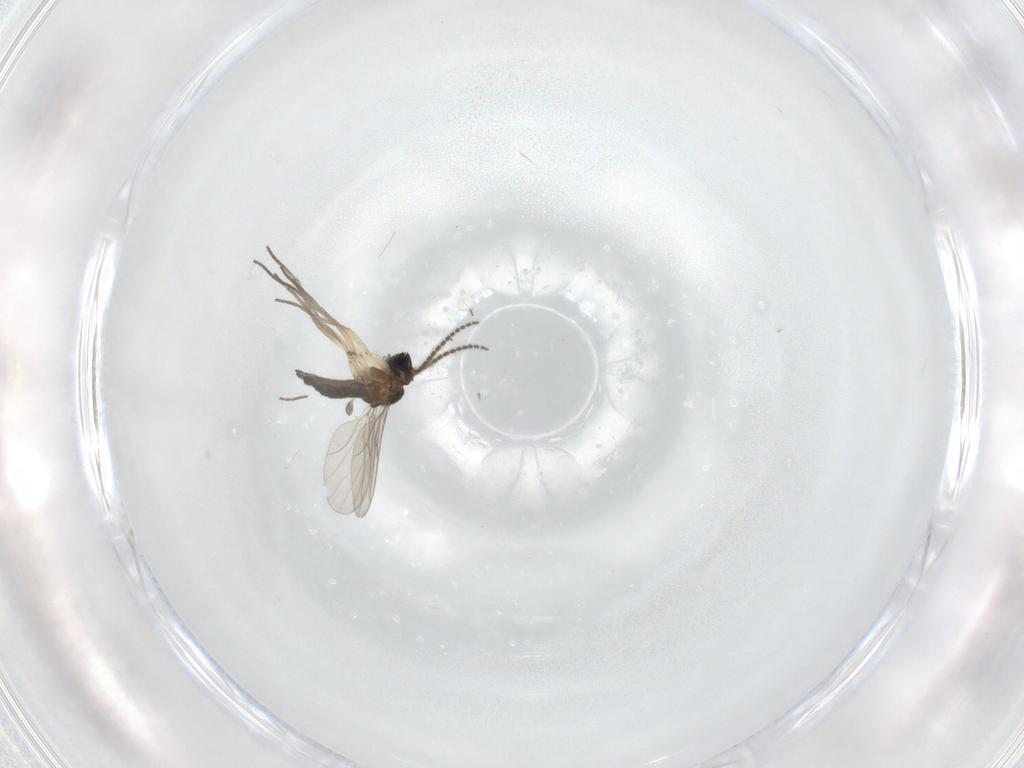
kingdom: Animalia
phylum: Arthropoda
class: Insecta
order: Diptera
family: Sciaridae
